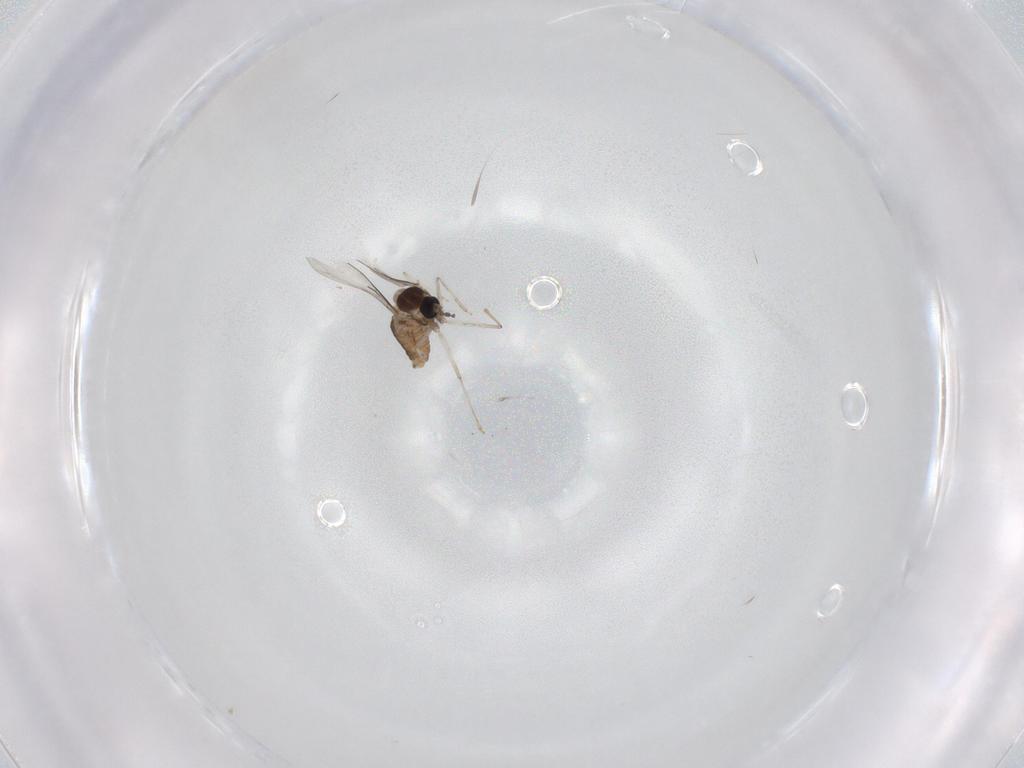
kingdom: Animalia
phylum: Arthropoda
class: Insecta
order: Diptera
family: Cecidomyiidae
